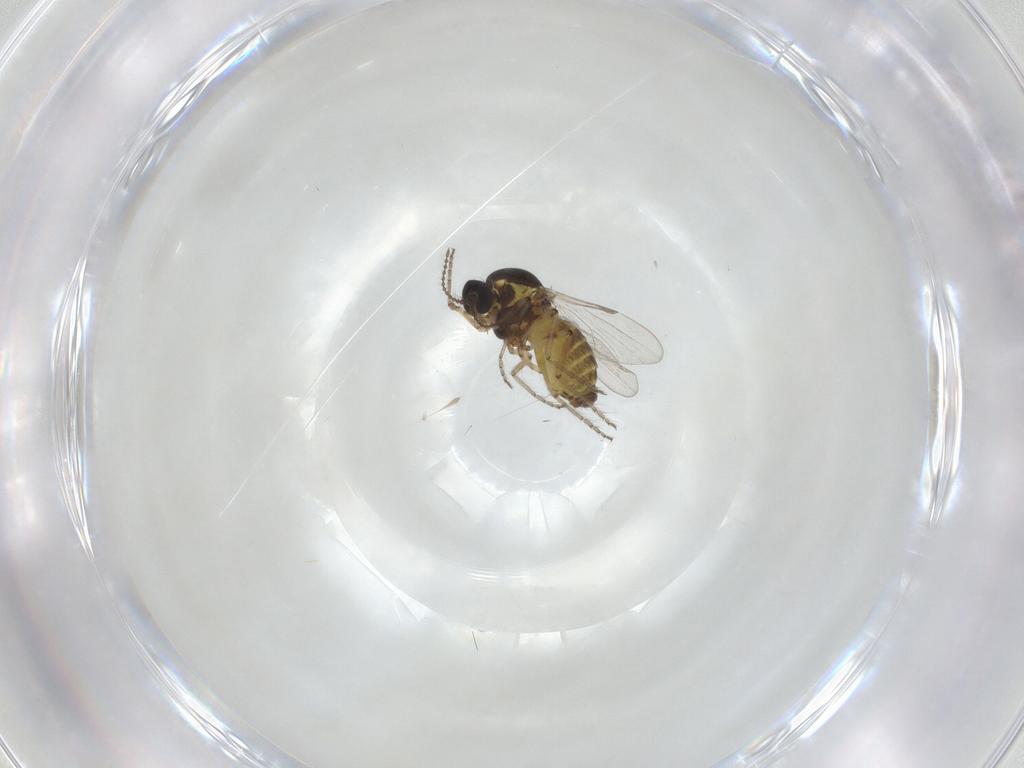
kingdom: Animalia
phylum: Arthropoda
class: Insecta
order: Diptera
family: Ceratopogonidae
